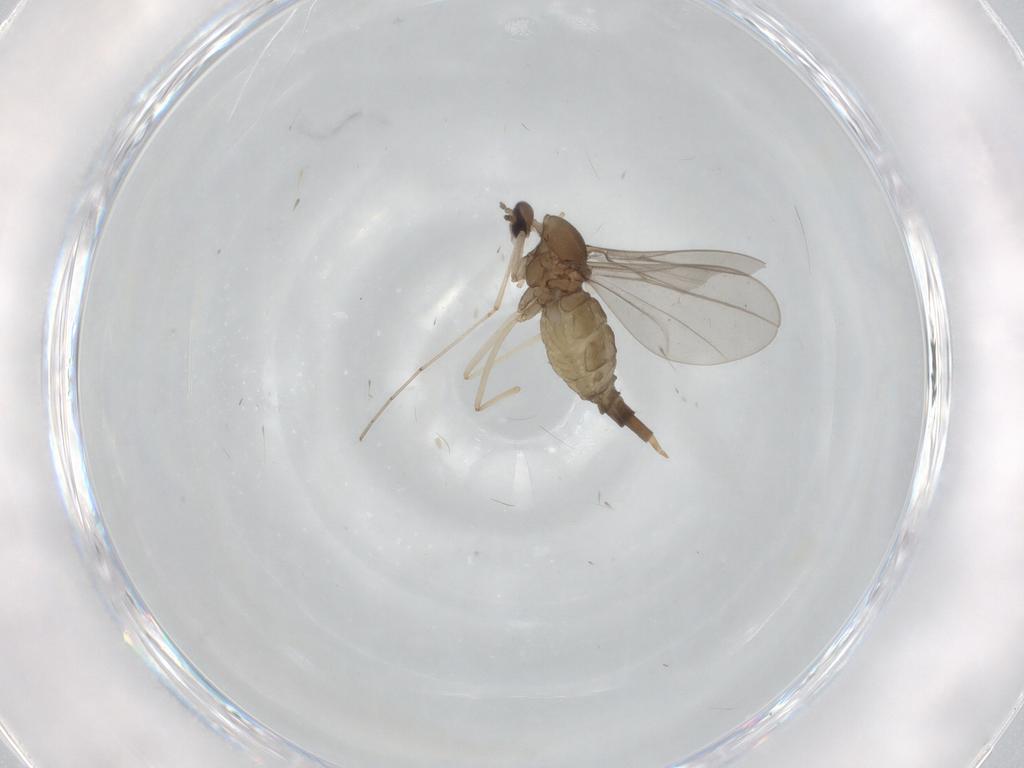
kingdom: Animalia
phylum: Arthropoda
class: Insecta
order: Diptera
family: Cecidomyiidae
